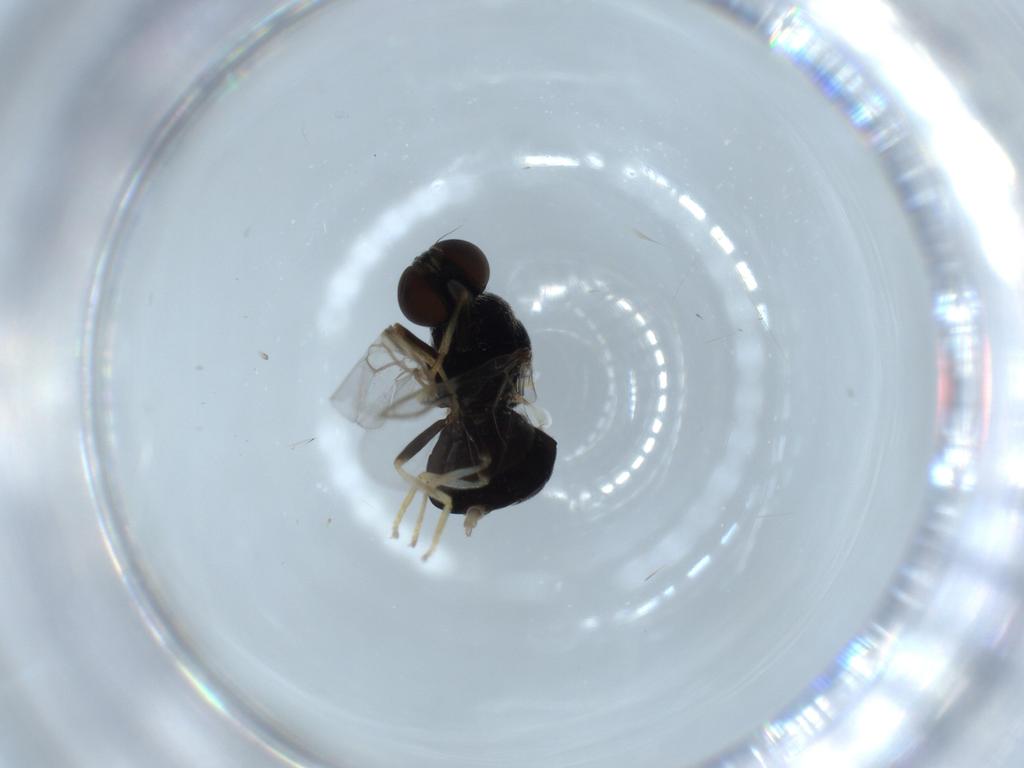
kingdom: Animalia
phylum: Arthropoda
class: Insecta
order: Diptera
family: Stratiomyidae
